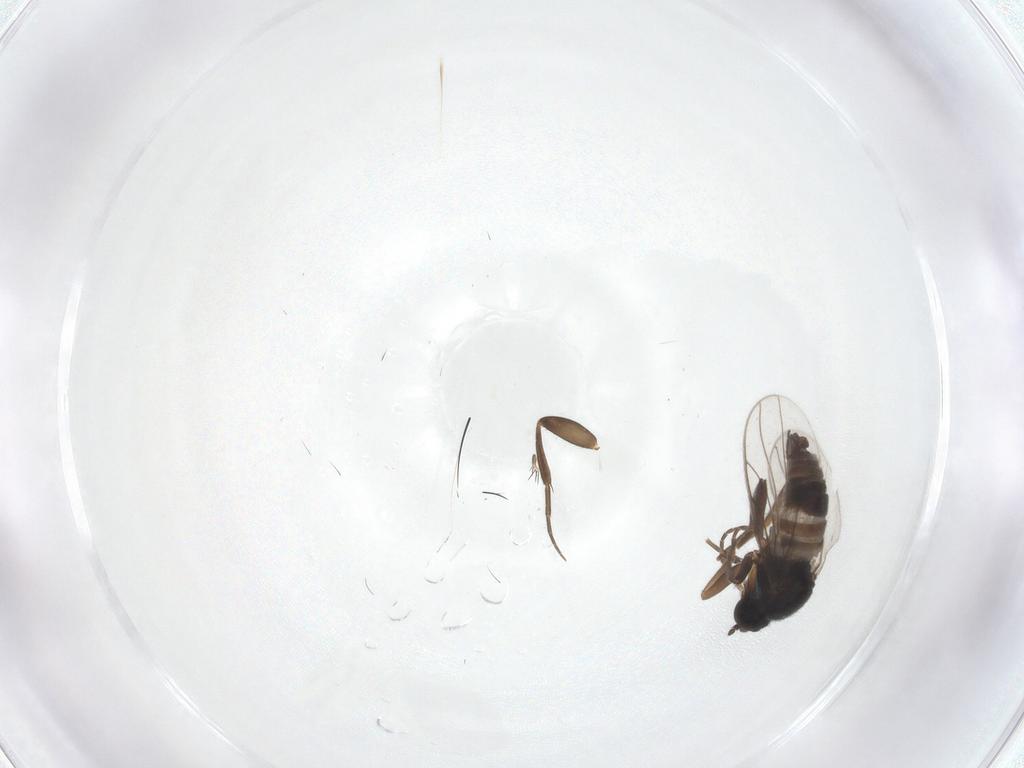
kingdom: Animalia
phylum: Arthropoda
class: Insecta
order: Diptera
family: Hybotidae
